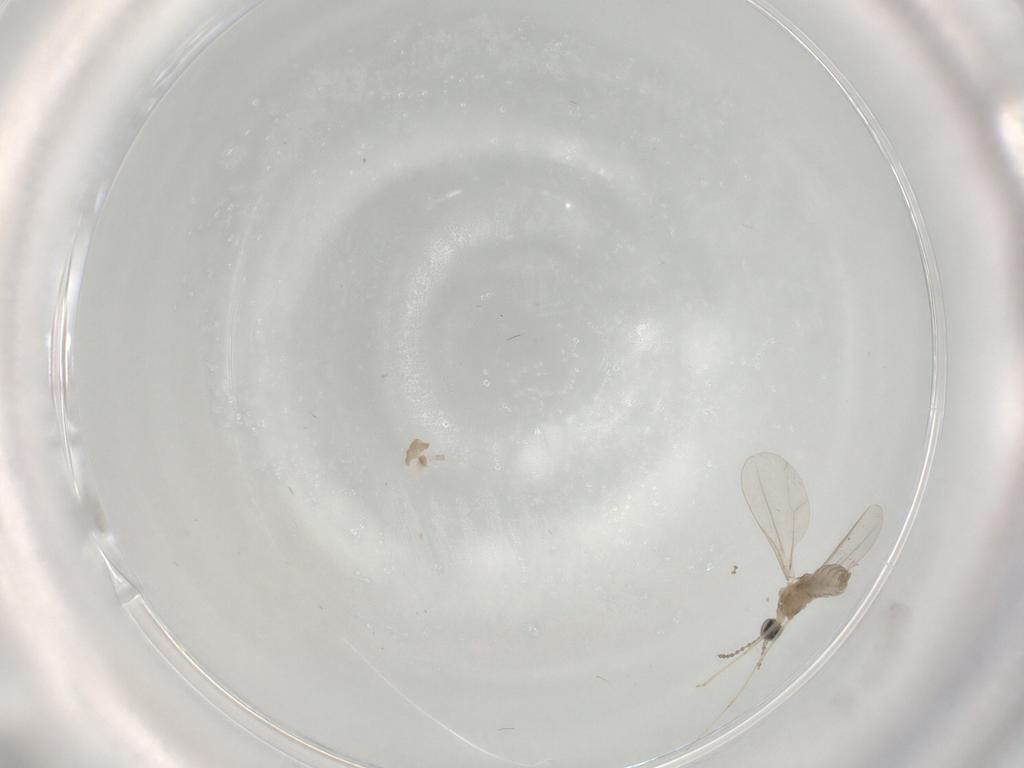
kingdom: Animalia
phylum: Arthropoda
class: Insecta
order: Diptera
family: Cecidomyiidae
